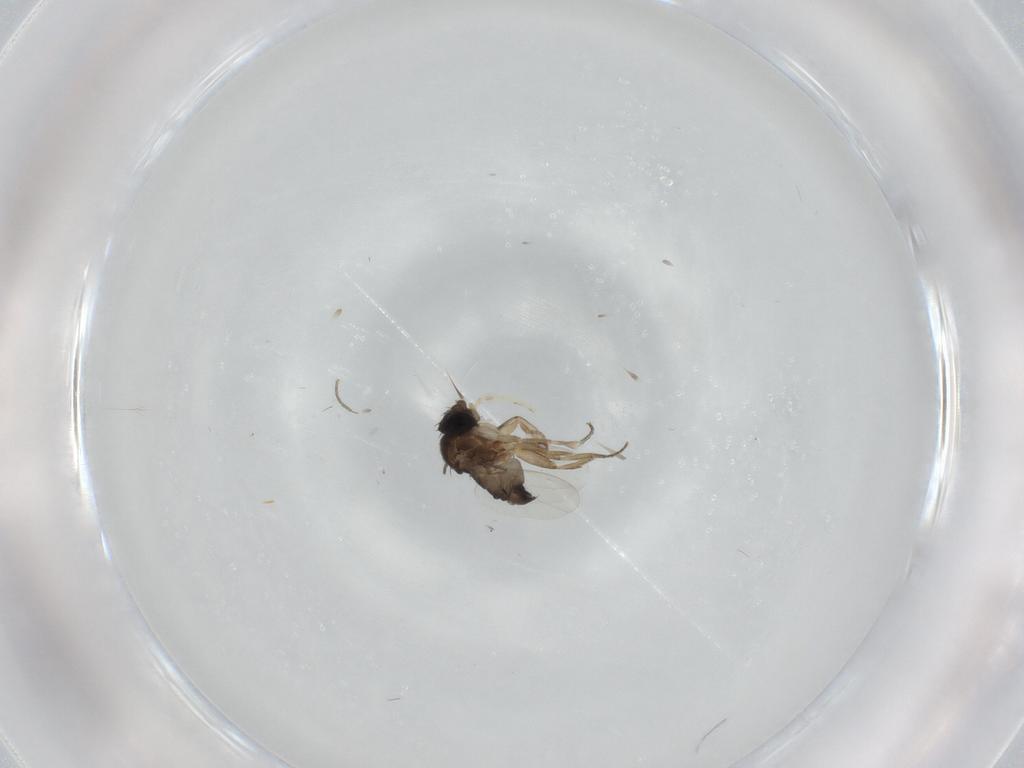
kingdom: Animalia
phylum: Arthropoda
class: Insecta
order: Diptera
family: Sciaridae
